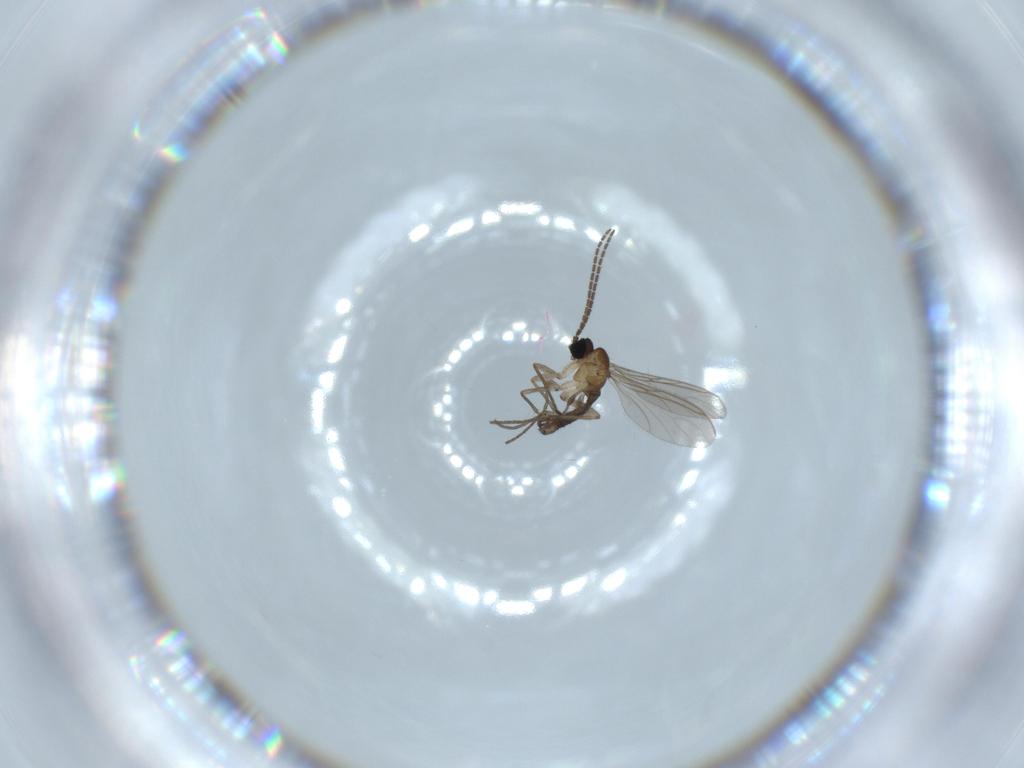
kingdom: Animalia
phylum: Arthropoda
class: Insecta
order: Diptera
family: Sciaridae
